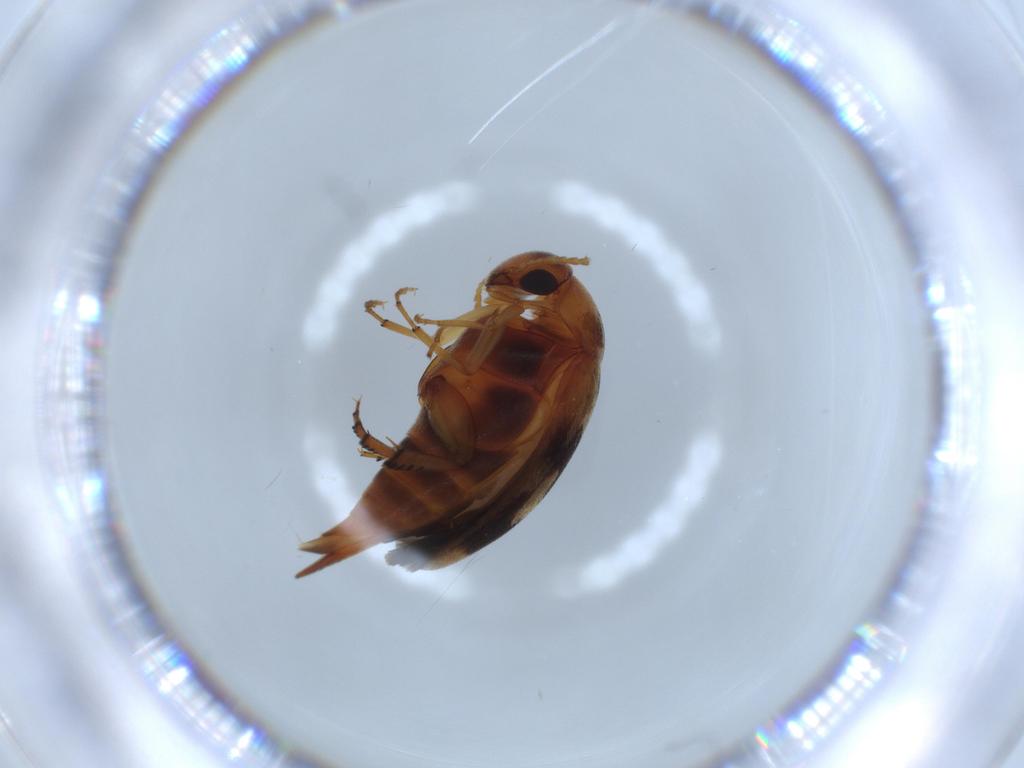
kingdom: Animalia
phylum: Arthropoda
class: Insecta
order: Coleoptera
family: Mordellidae
